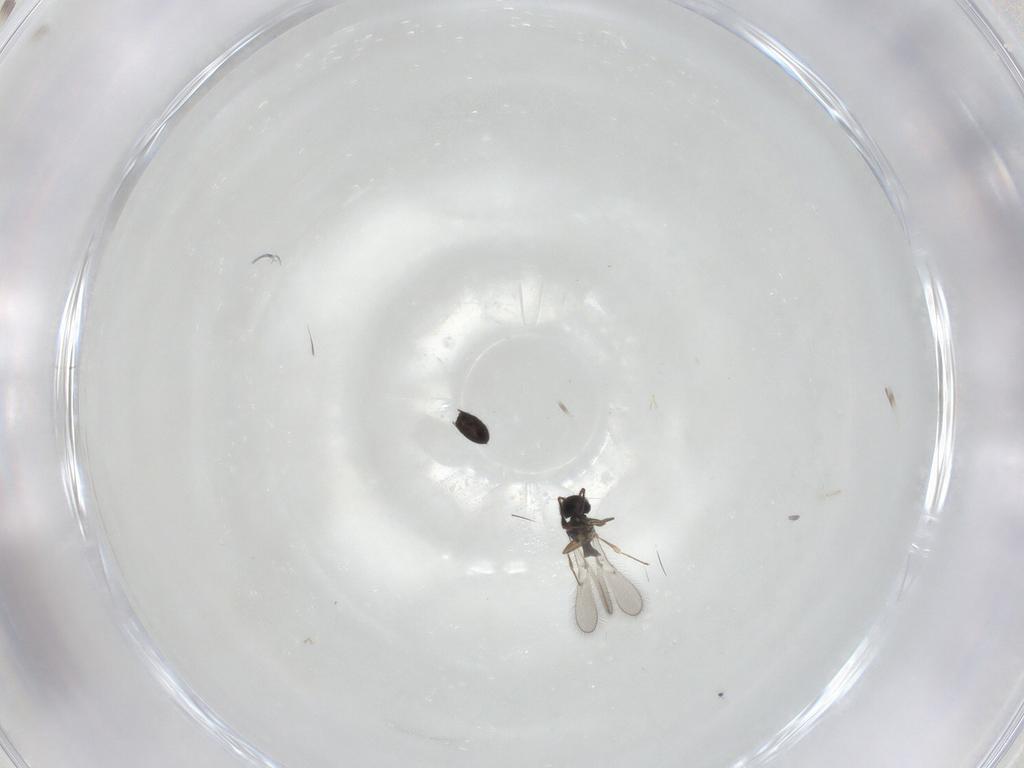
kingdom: Animalia
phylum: Arthropoda
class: Insecta
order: Hymenoptera
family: Scelionidae
